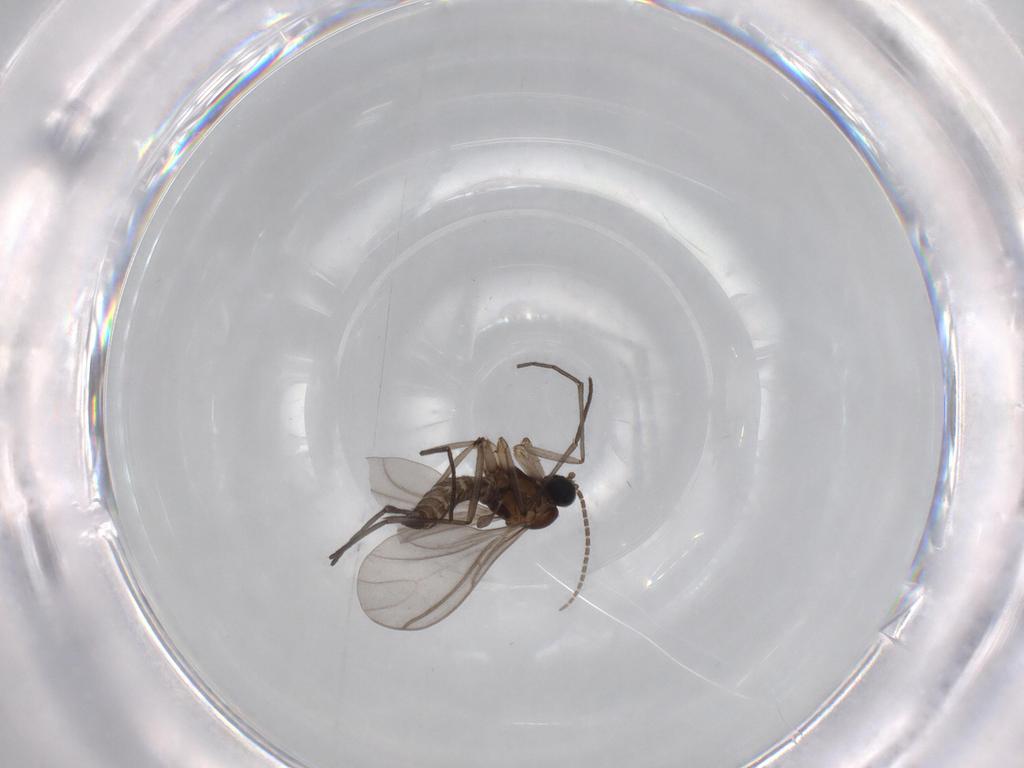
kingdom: Animalia
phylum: Arthropoda
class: Insecta
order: Diptera
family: Sciaridae
